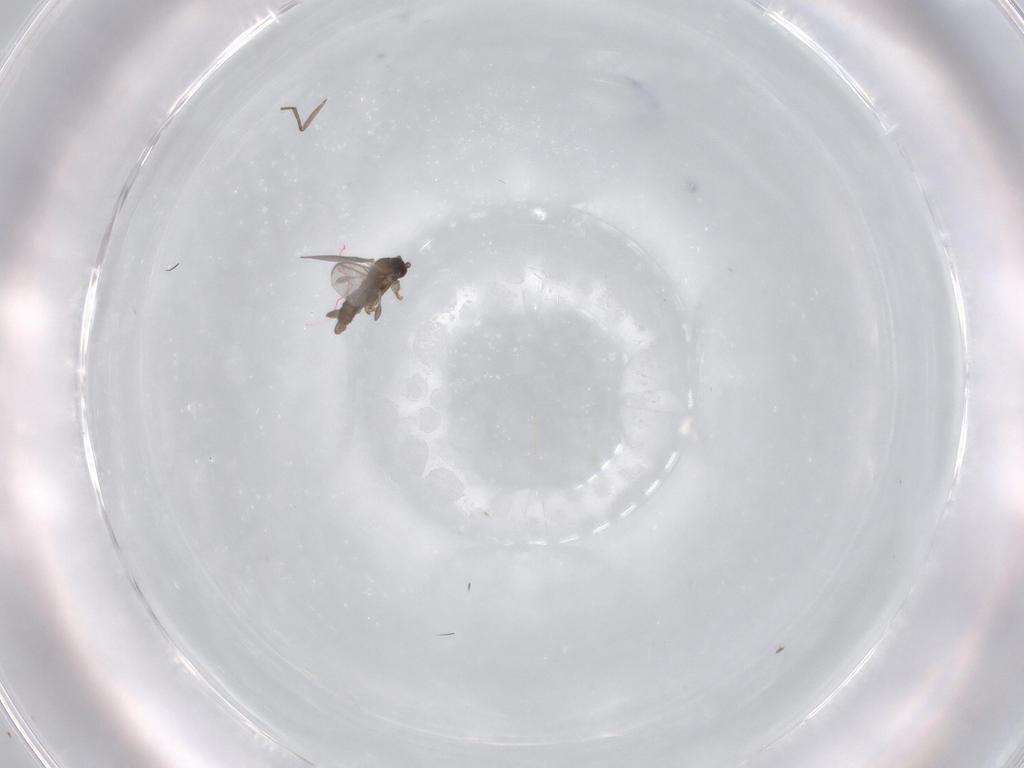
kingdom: Animalia
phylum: Arthropoda
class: Insecta
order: Diptera
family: Sciaridae
